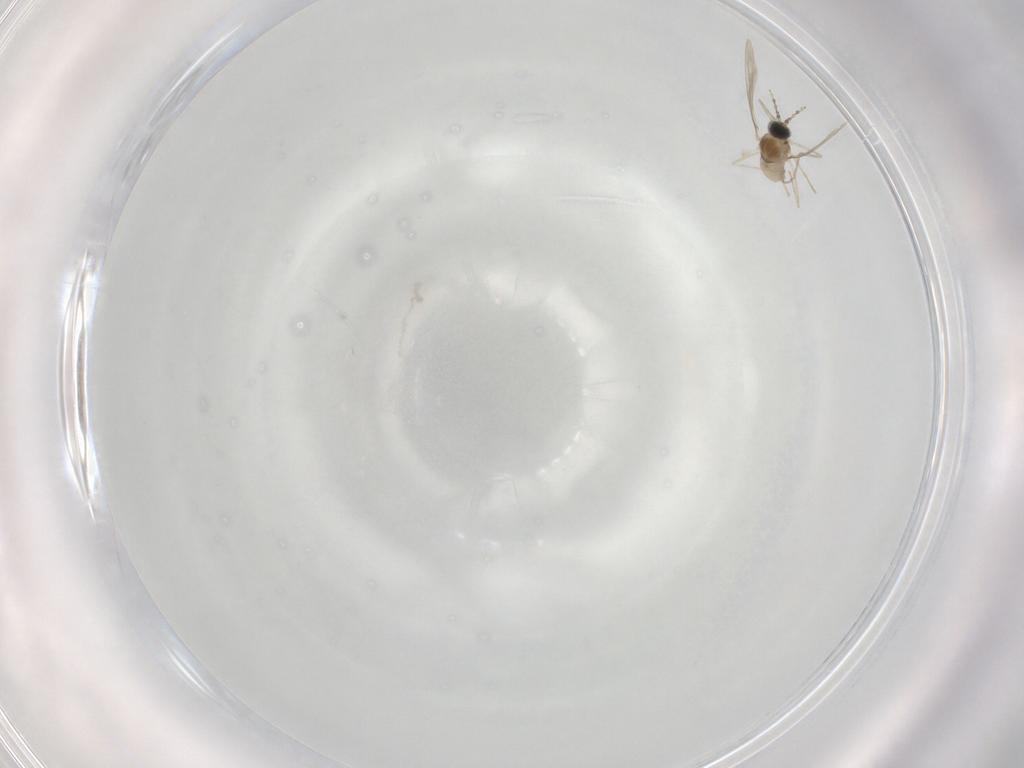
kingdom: Animalia
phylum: Arthropoda
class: Insecta
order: Diptera
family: Cecidomyiidae
